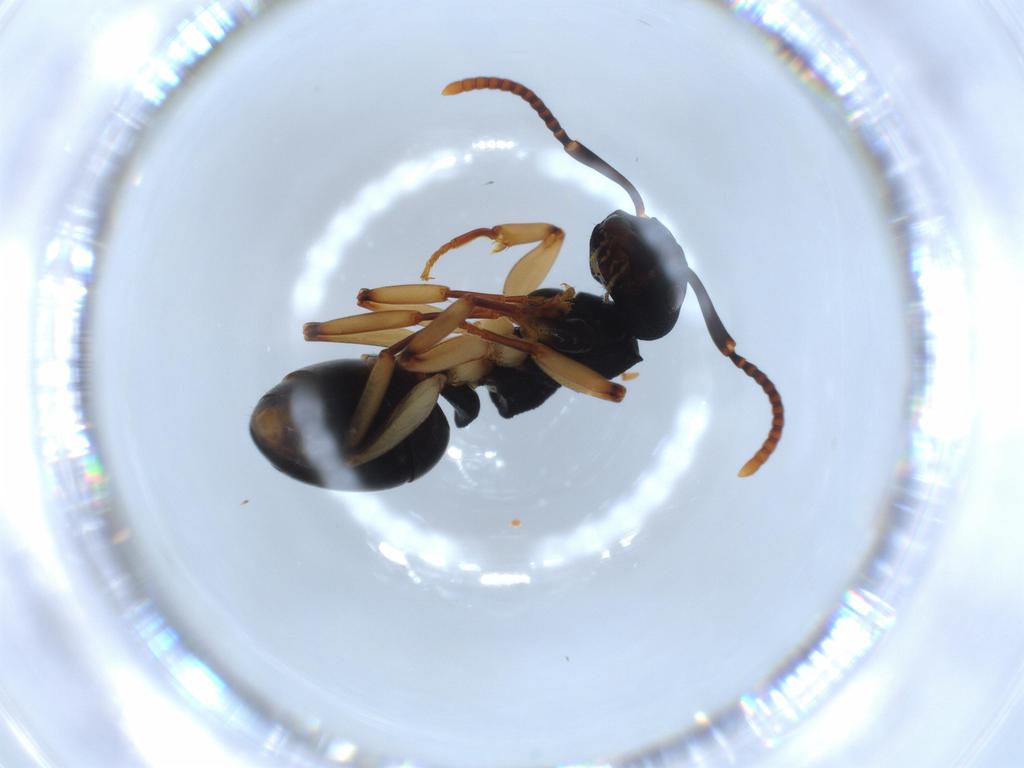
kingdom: Animalia
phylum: Arthropoda
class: Insecta
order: Hymenoptera
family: Formicidae
